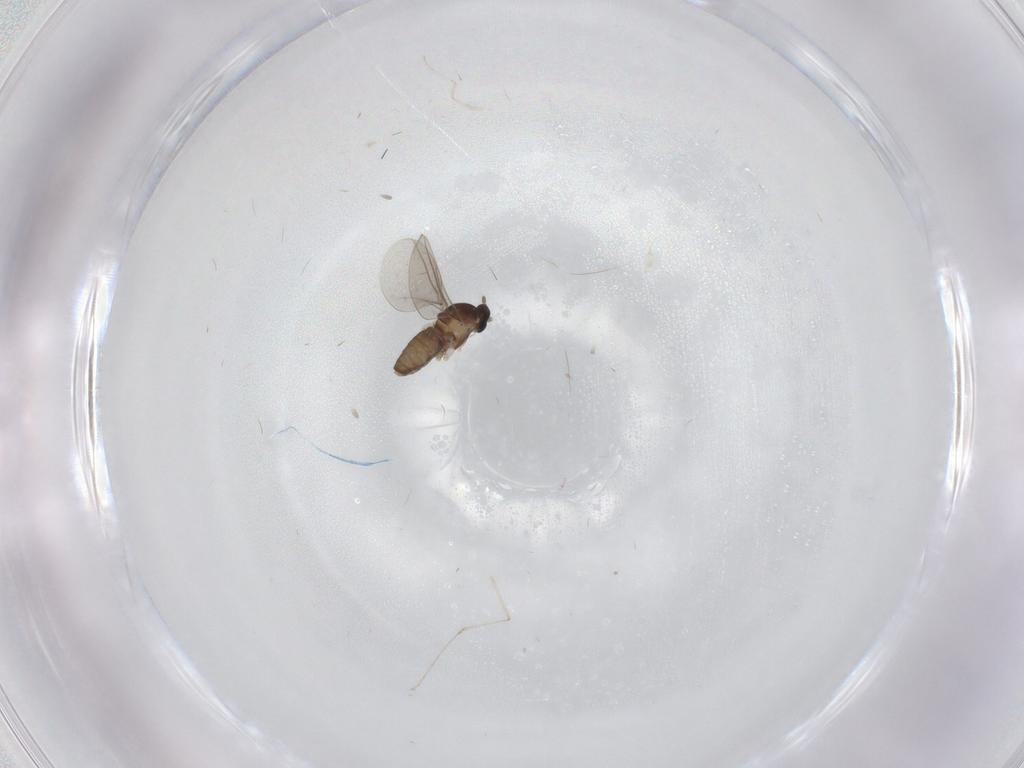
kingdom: Animalia
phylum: Arthropoda
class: Insecta
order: Diptera
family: Cecidomyiidae
